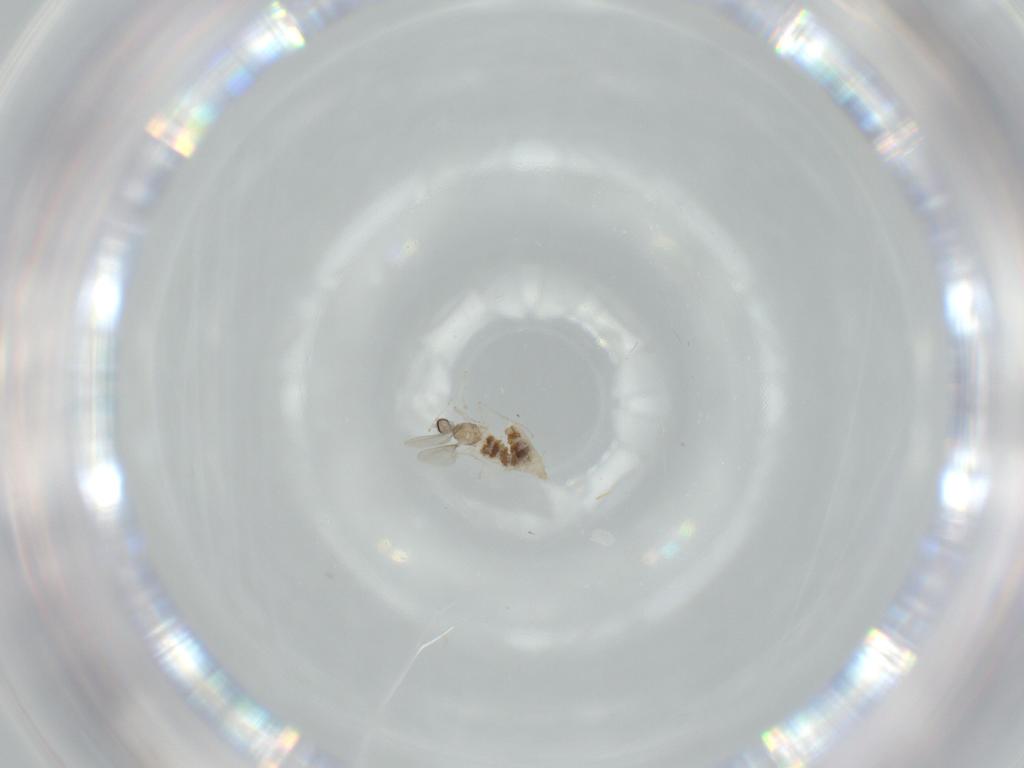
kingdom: Animalia
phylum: Arthropoda
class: Insecta
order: Diptera
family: Cecidomyiidae
